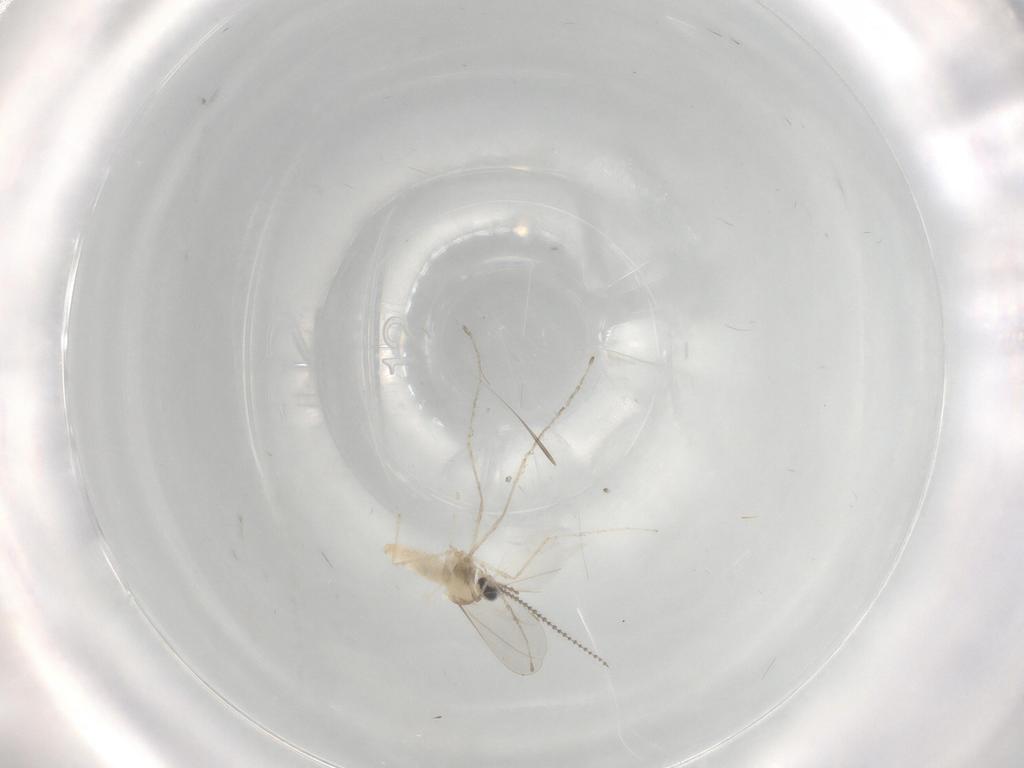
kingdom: Animalia
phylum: Arthropoda
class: Insecta
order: Diptera
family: Cecidomyiidae
